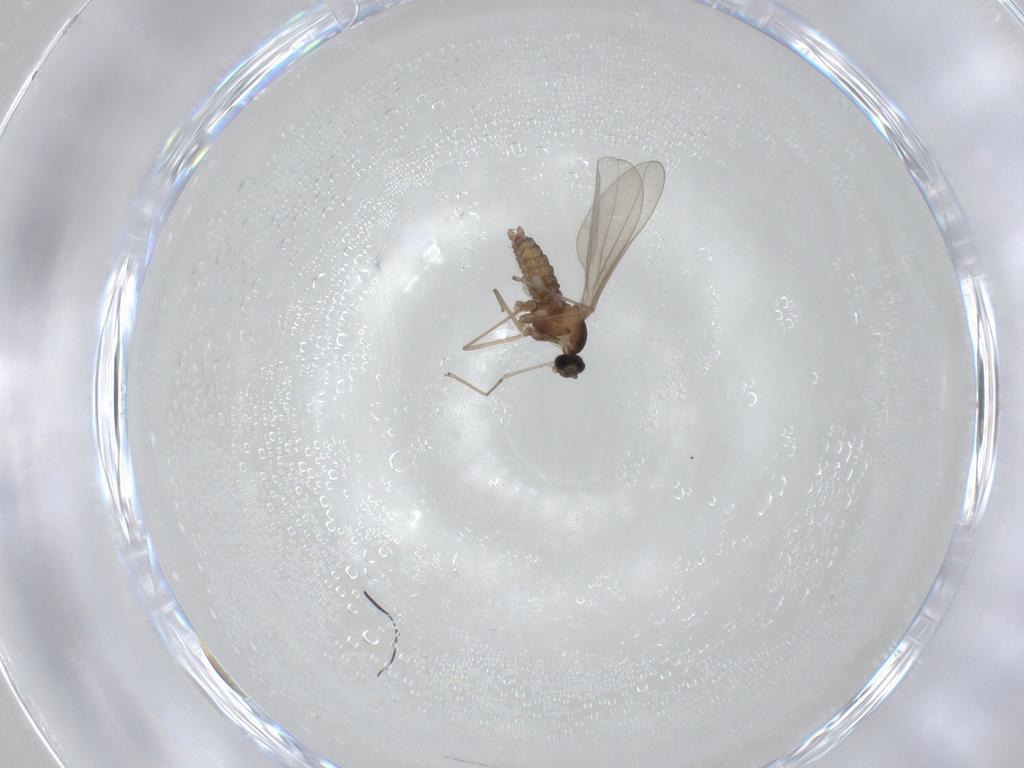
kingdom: Animalia
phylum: Arthropoda
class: Insecta
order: Diptera
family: Cecidomyiidae
